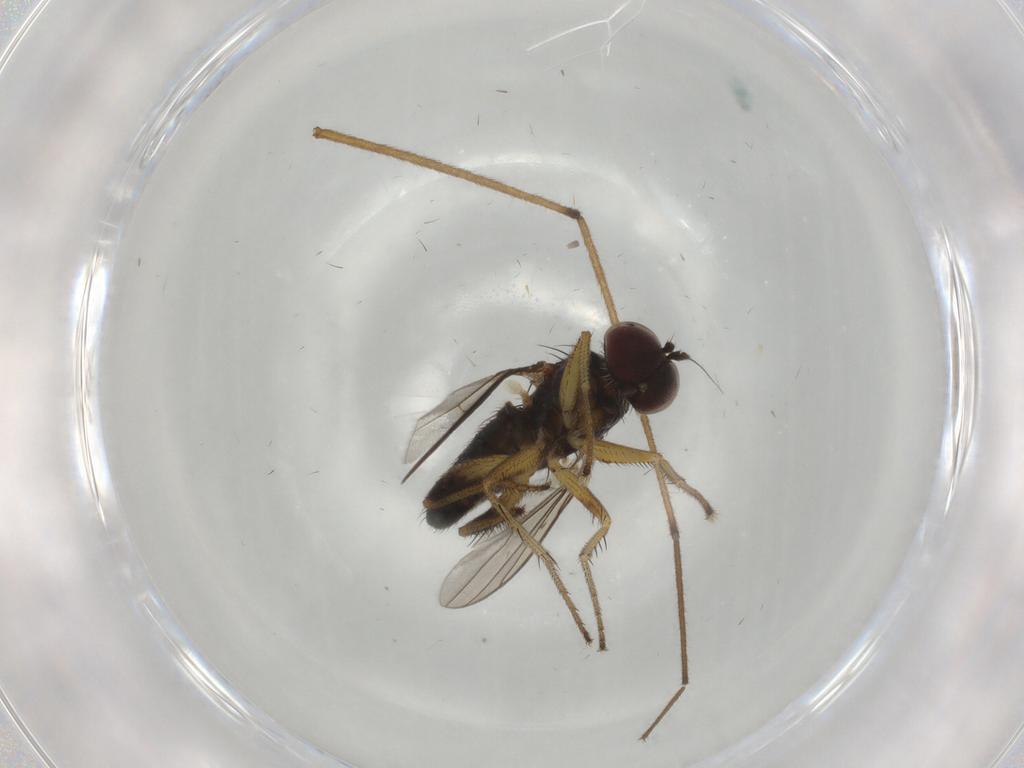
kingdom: Animalia
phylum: Arthropoda
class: Insecta
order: Diptera
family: Dolichopodidae
